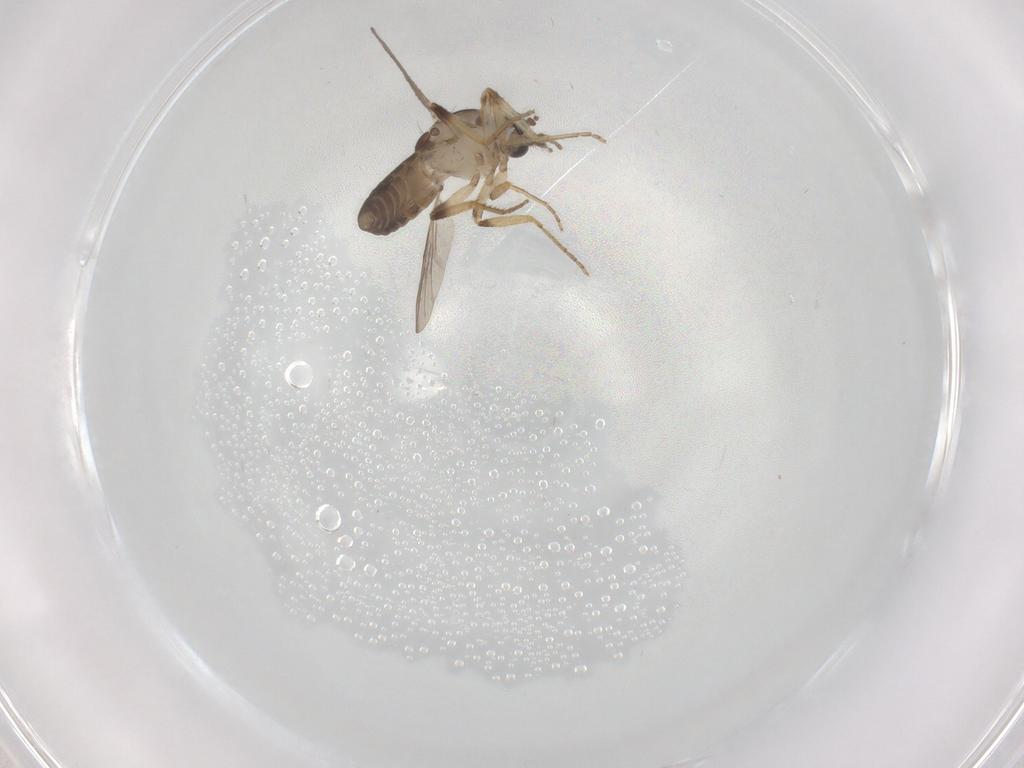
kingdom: Animalia
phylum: Arthropoda
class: Insecta
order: Diptera
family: Ceratopogonidae
